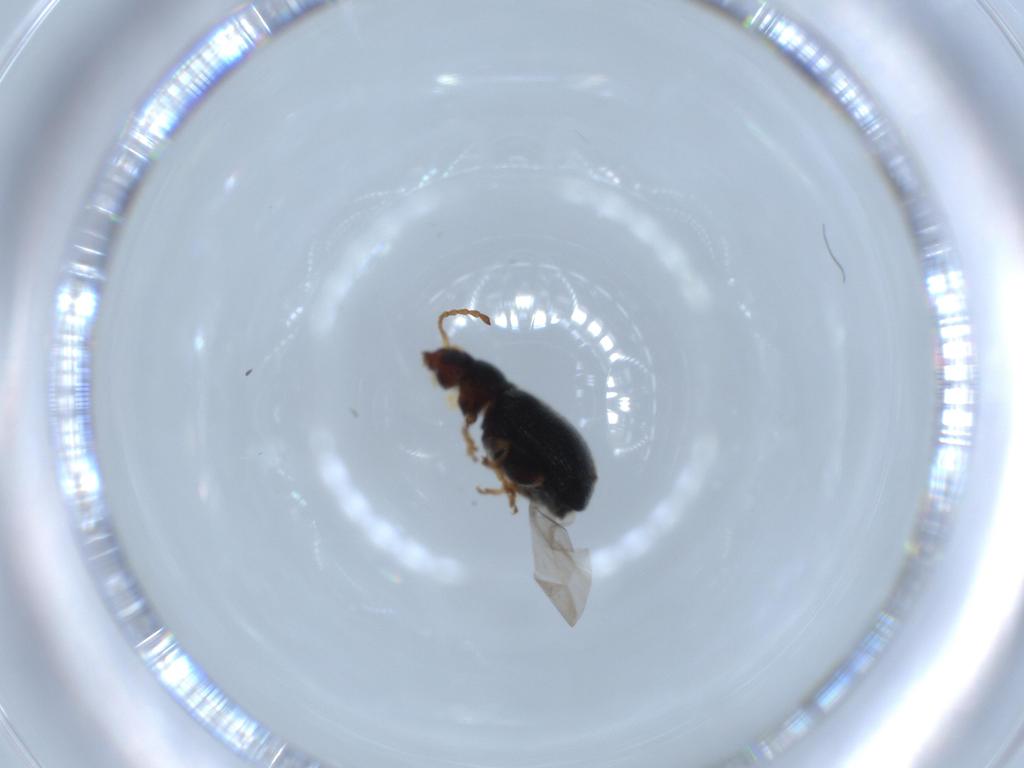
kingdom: Animalia
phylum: Arthropoda
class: Insecta
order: Coleoptera
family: Chrysomelidae
